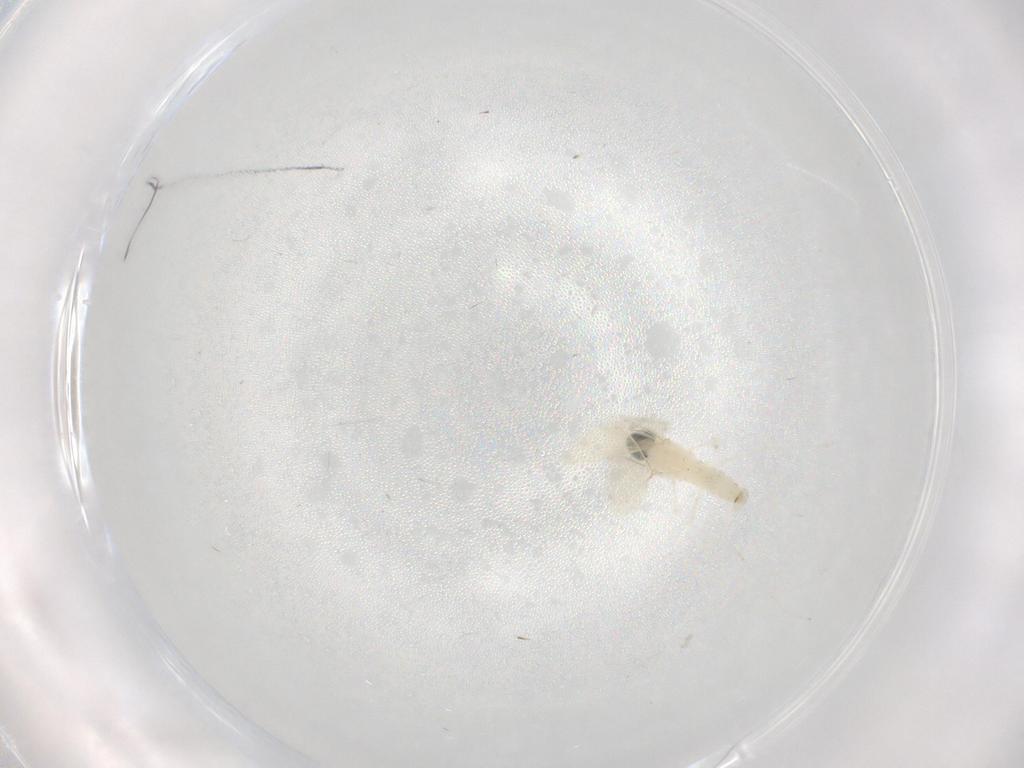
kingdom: Animalia
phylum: Arthropoda
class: Insecta
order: Diptera
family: Cecidomyiidae
